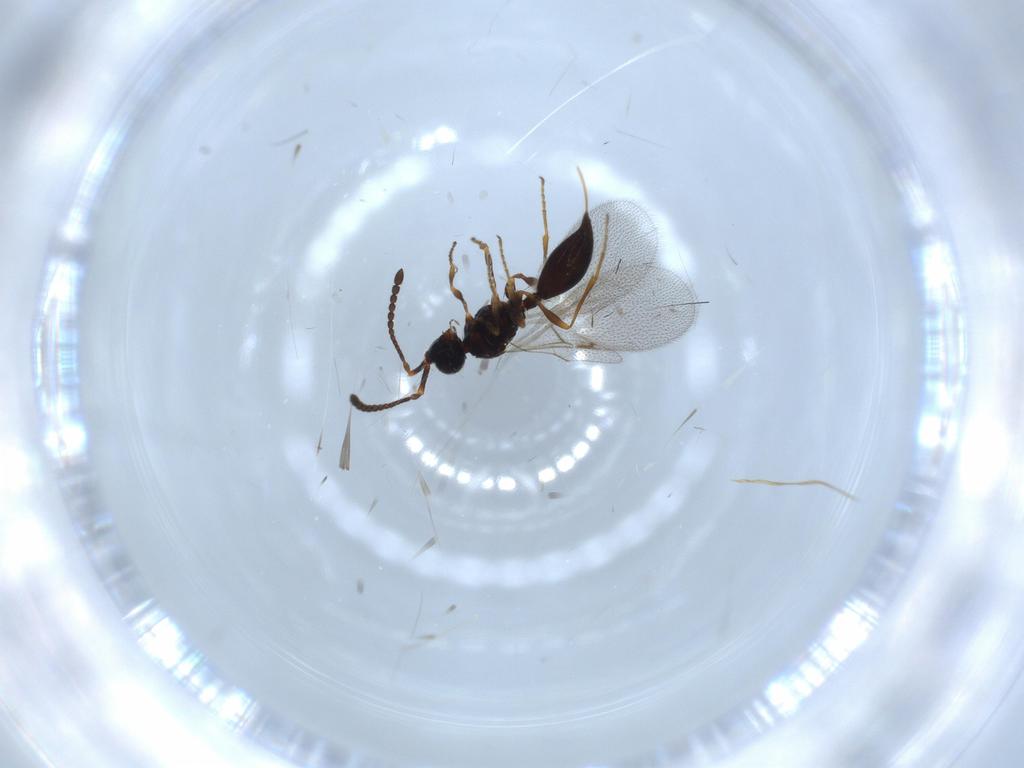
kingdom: Animalia
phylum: Arthropoda
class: Insecta
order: Hymenoptera
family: Diapriidae
